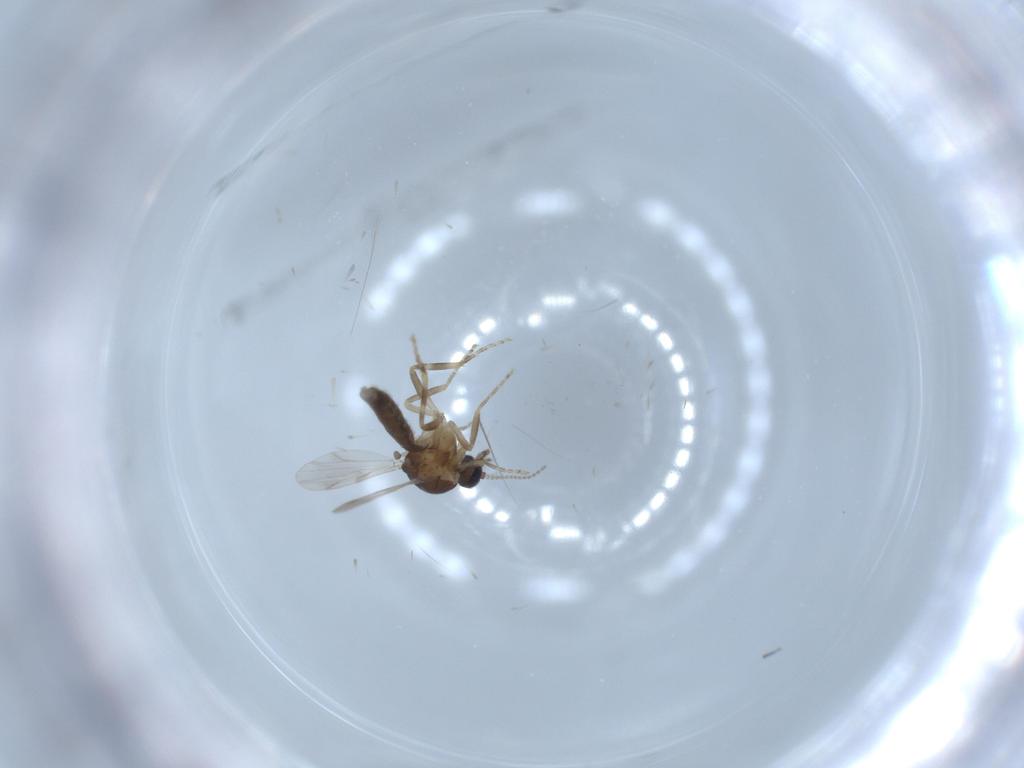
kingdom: Animalia
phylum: Arthropoda
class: Insecta
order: Diptera
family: Ceratopogonidae
